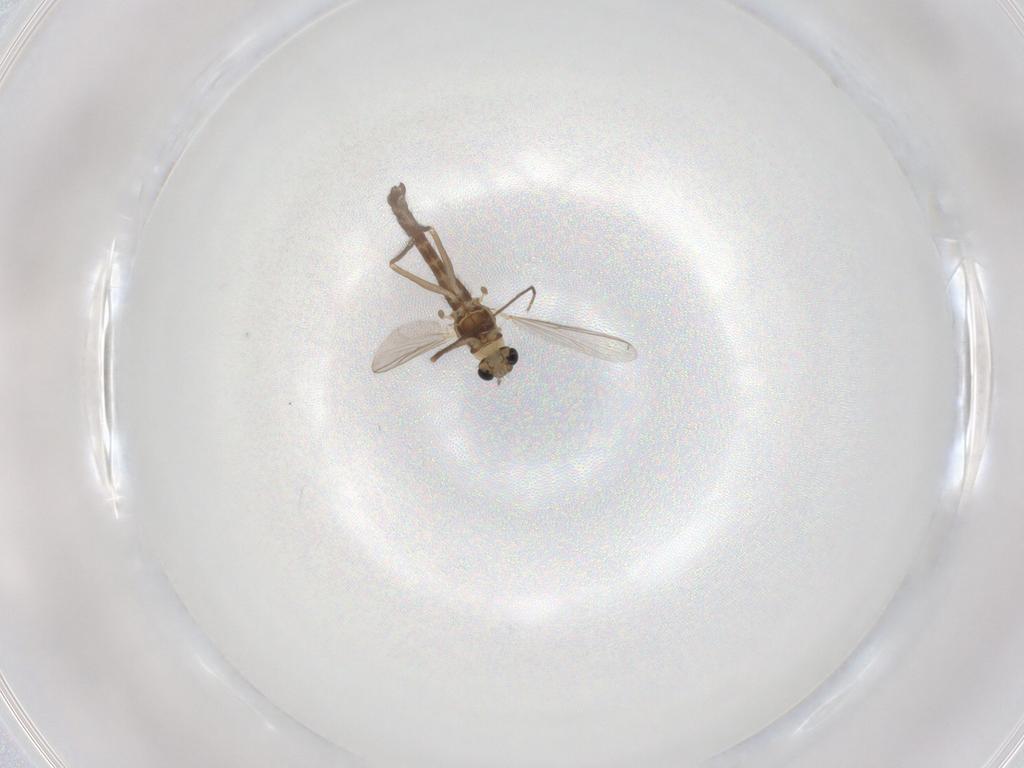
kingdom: Animalia
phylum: Arthropoda
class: Insecta
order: Diptera
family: Chironomidae
